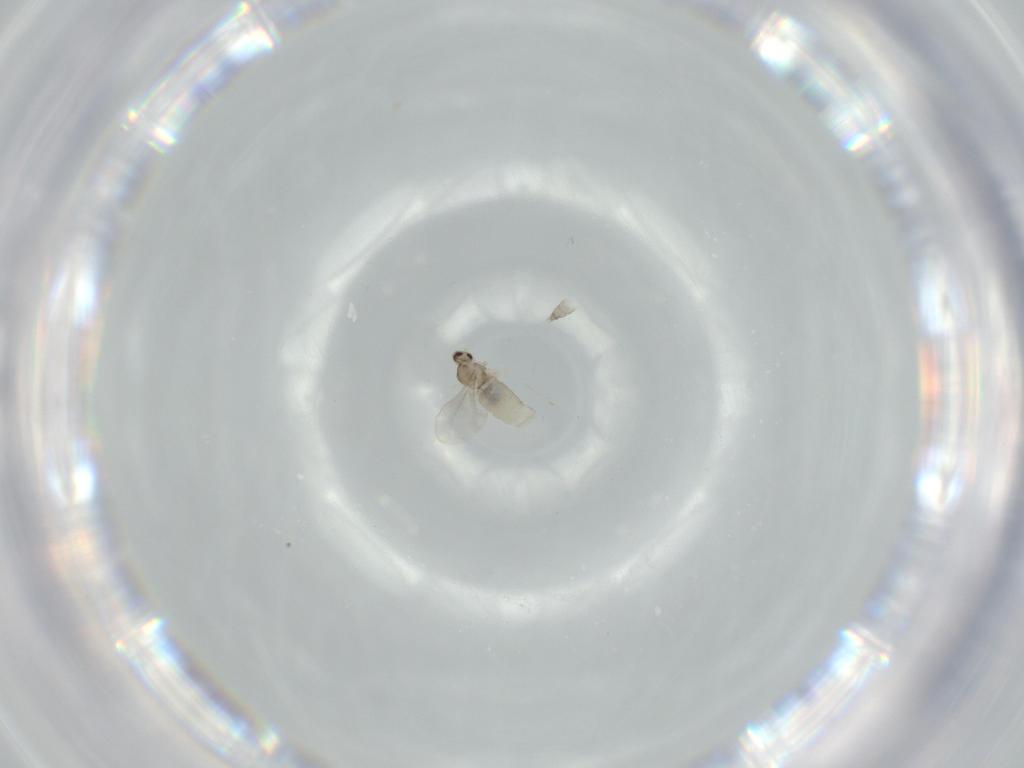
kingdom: Animalia
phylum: Arthropoda
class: Insecta
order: Diptera
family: Cecidomyiidae
